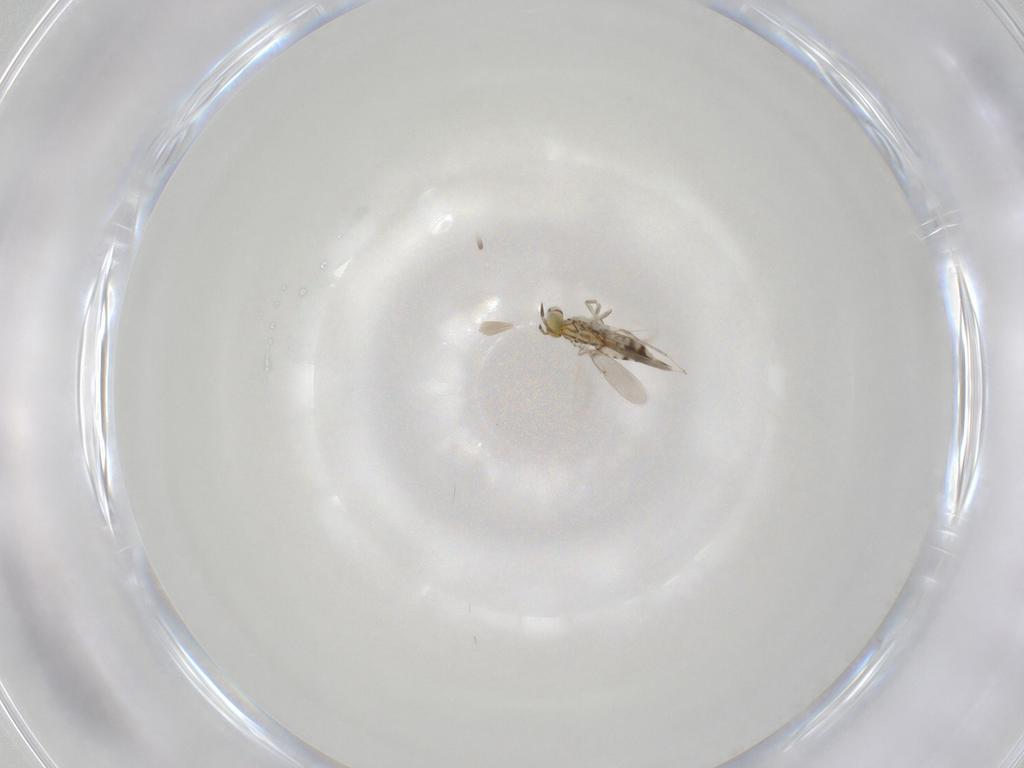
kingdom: Animalia
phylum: Arthropoda
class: Insecta
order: Hymenoptera
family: Aphelinidae
